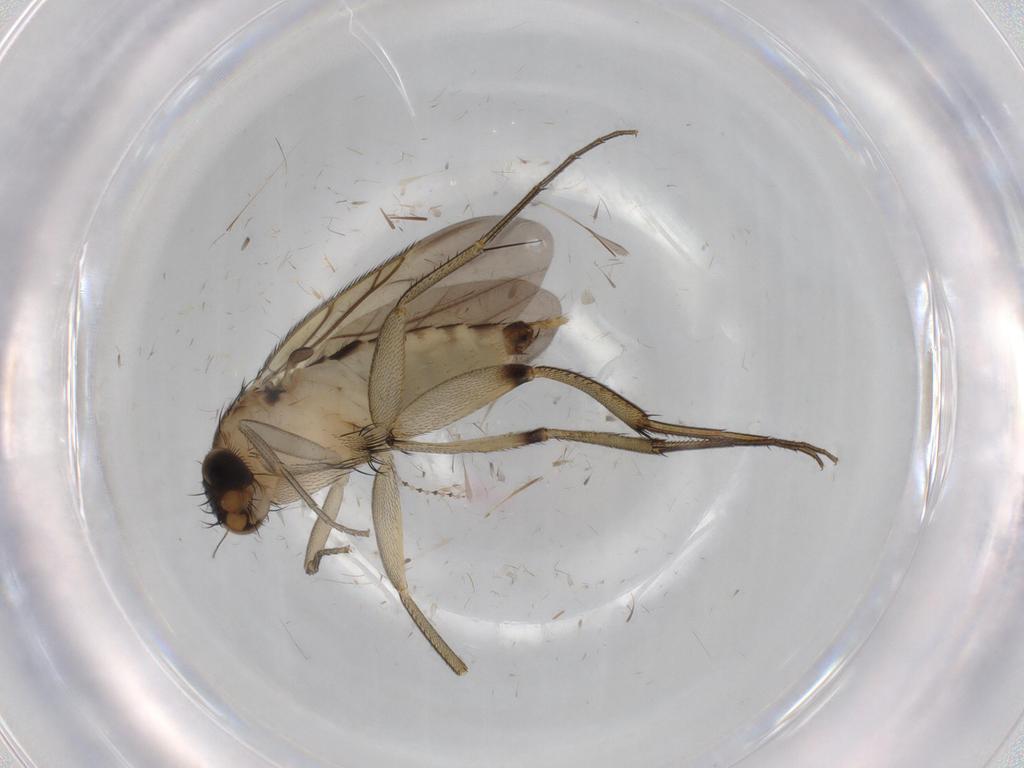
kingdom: Animalia
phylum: Arthropoda
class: Insecta
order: Diptera
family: Phoridae
